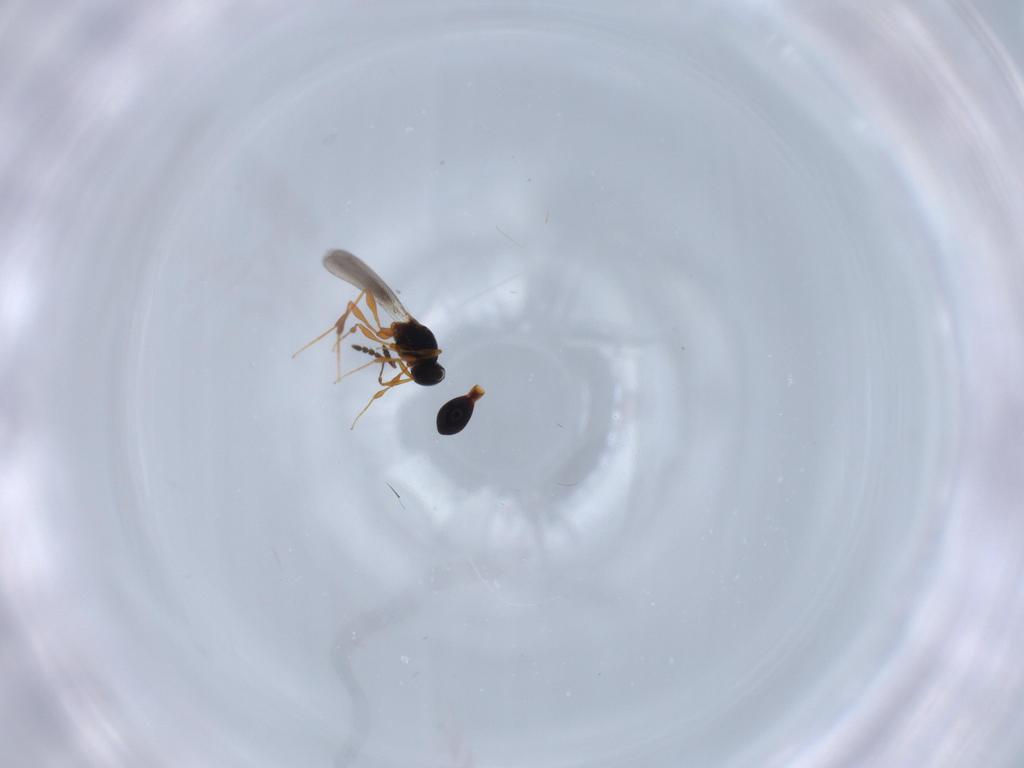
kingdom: Animalia
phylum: Arthropoda
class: Insecta
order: Hymenoptera
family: Platygastridae
